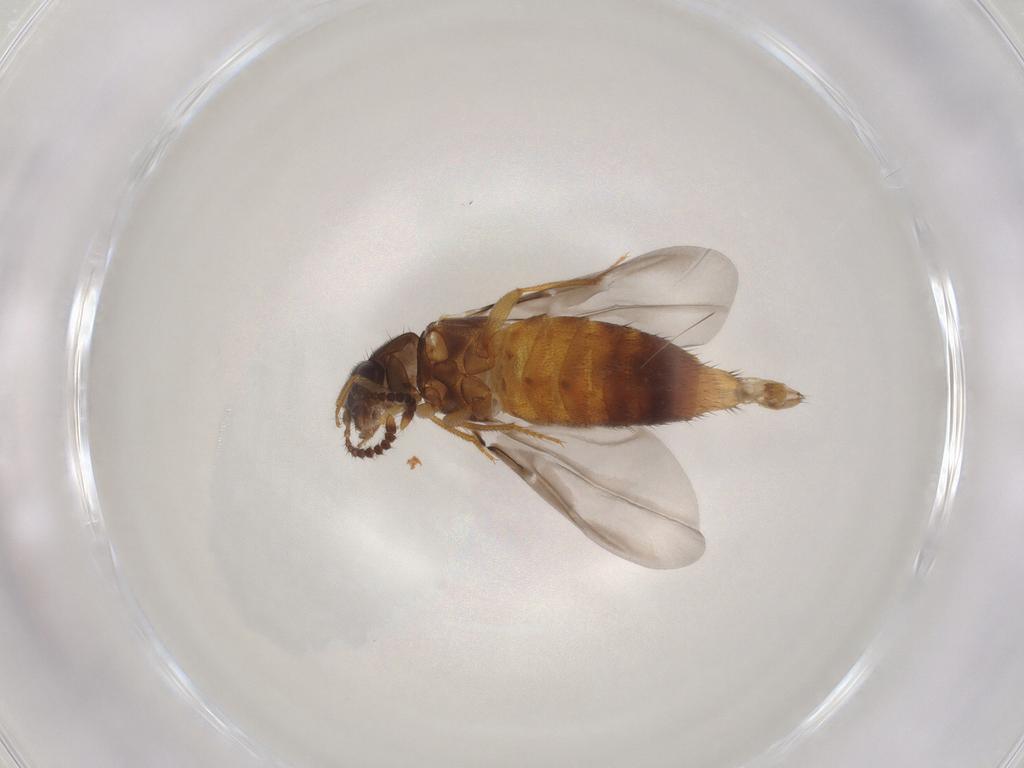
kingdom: Animalia
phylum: Arthropoda
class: Insecta
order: Coleoptera
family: Staphylinidae
